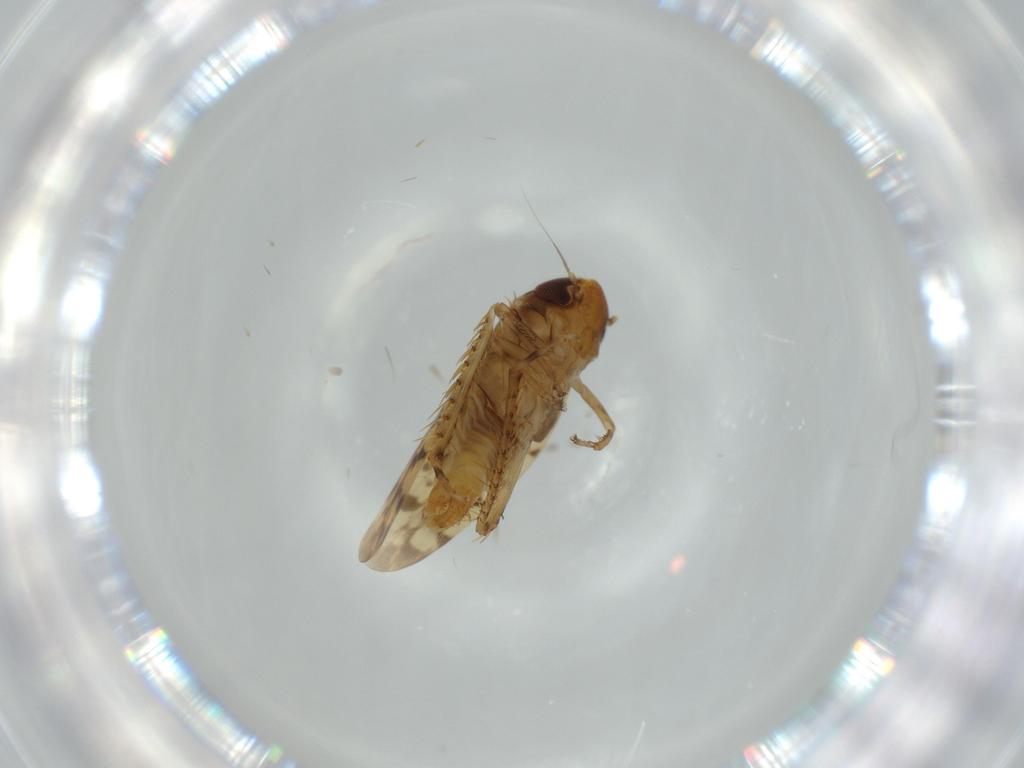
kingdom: Animalia
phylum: Arthropoda
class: Insecta
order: Hemiptera
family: Cicadellidae
